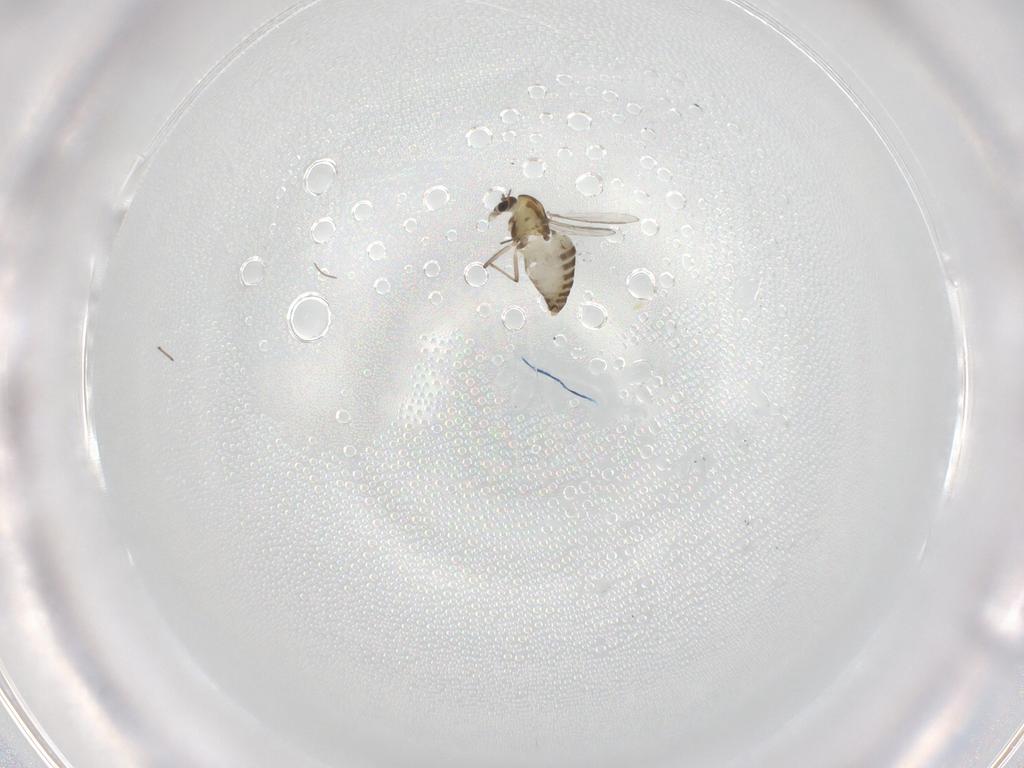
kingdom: Animalia
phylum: Arthropoda
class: Insecta
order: Diptera
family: Chironomidae
